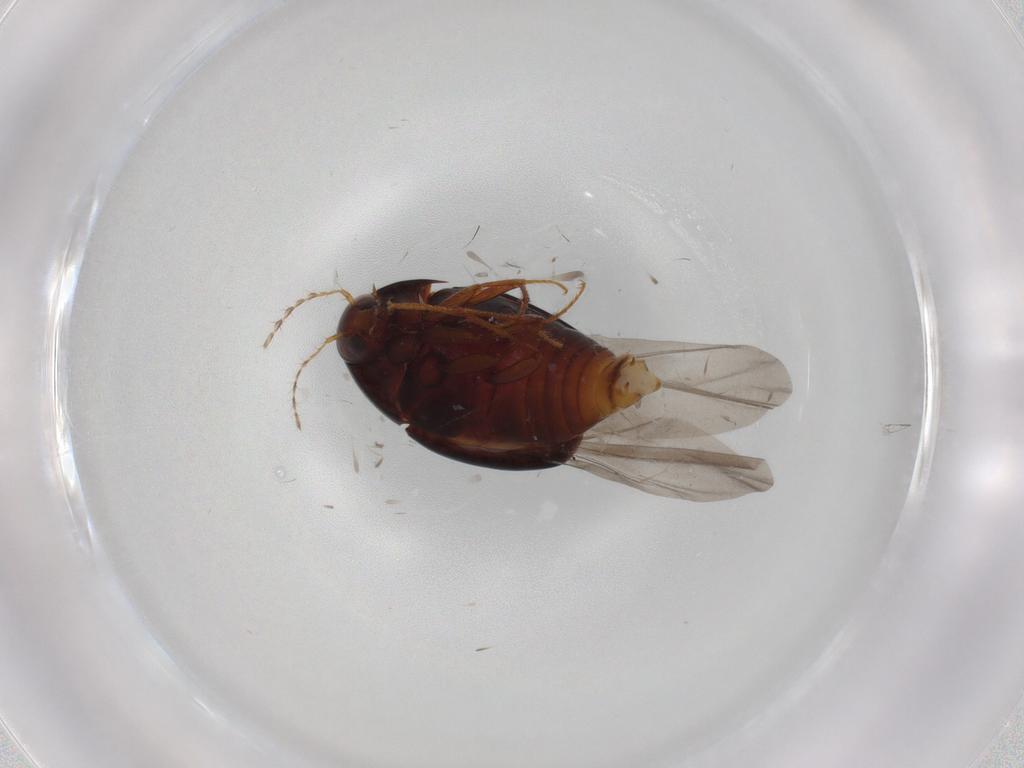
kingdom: Animalia
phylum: Arthropoda
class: Insecta
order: Coleoptera
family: Staphylinidae
